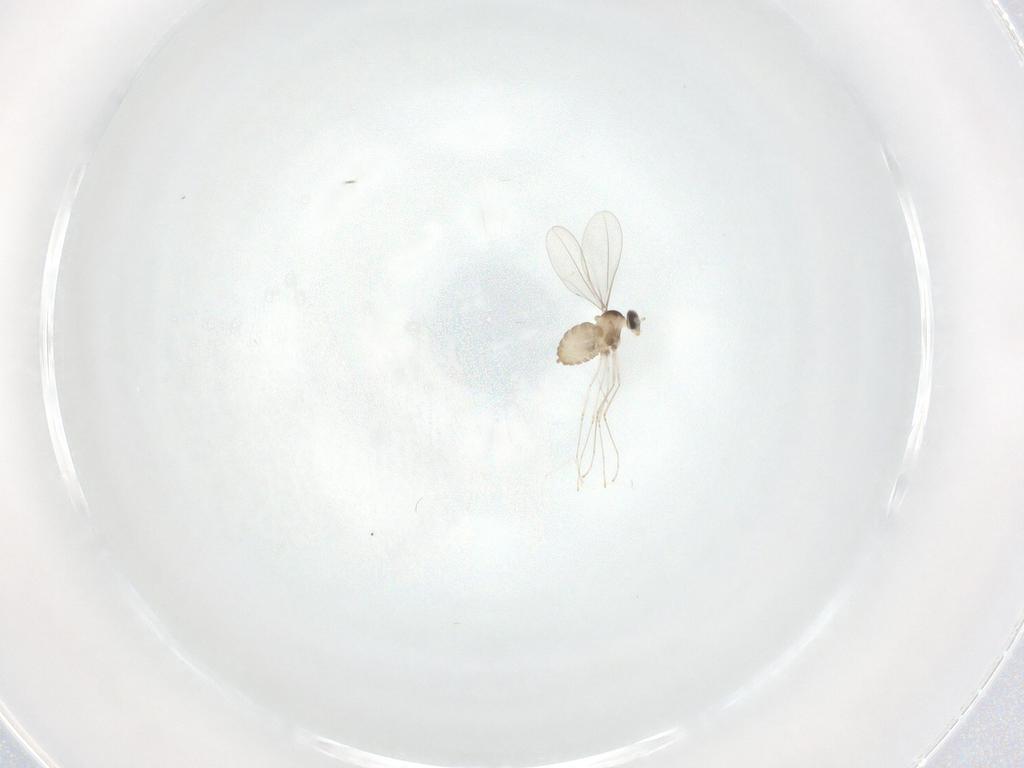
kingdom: Animalia
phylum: Arthropoda
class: Insecta
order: Diptera
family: Cecidomyiidae
